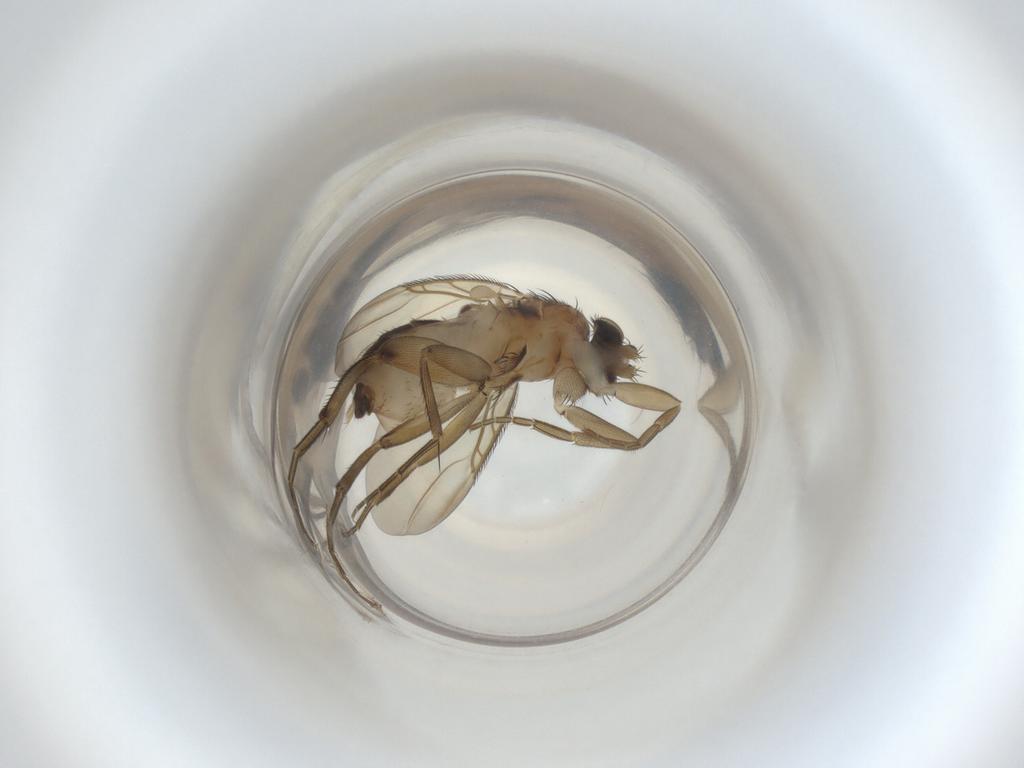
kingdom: Animalia
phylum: Arthropoda
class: Insecta
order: Diptera
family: Phoridae
